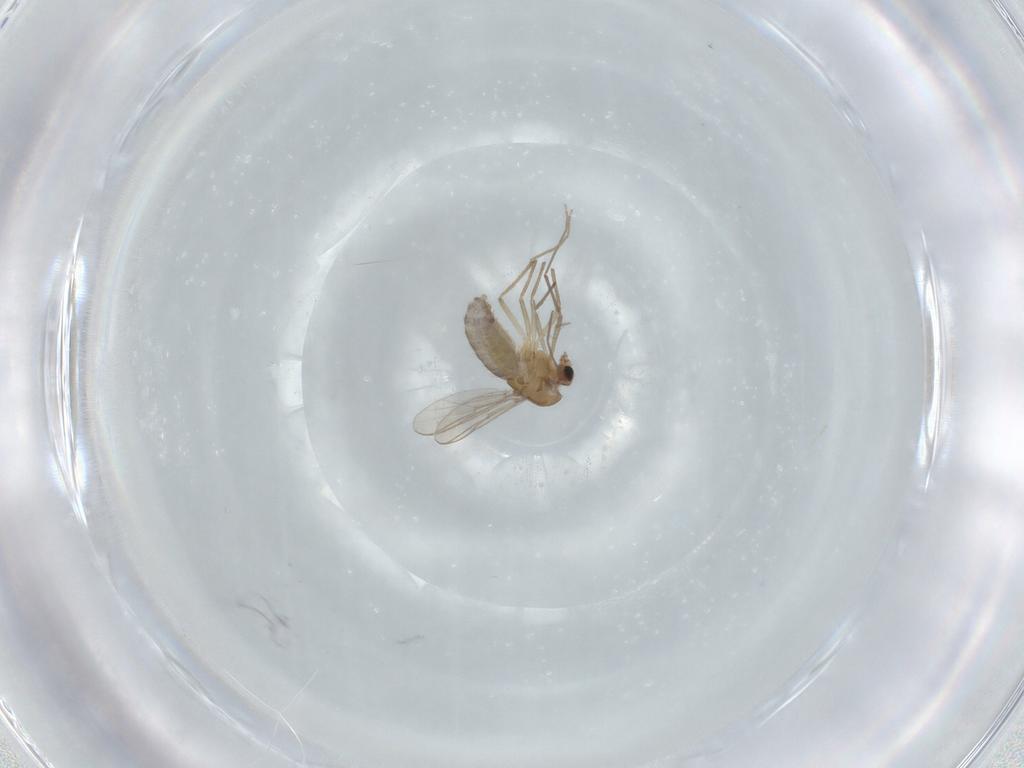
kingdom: Animalia
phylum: Arthropoda
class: Insecta
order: Diptera
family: Chironomidae
